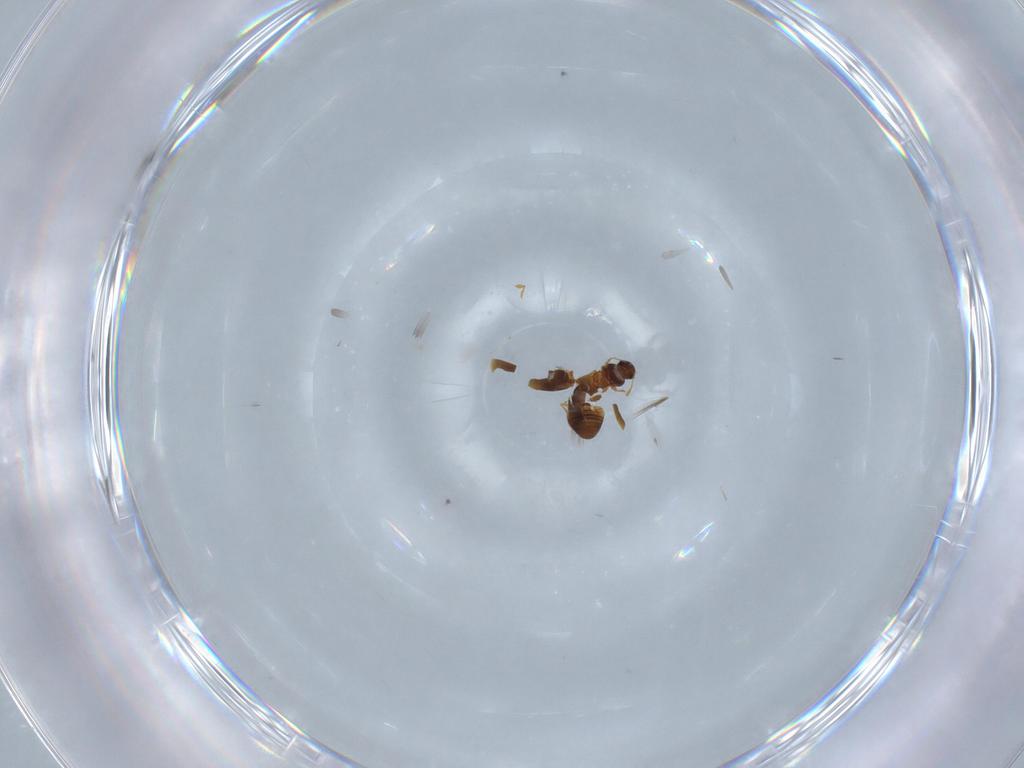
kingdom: Animalia
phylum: Arthropoda
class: Insecta
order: Coleoptera
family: Ptiliidae
